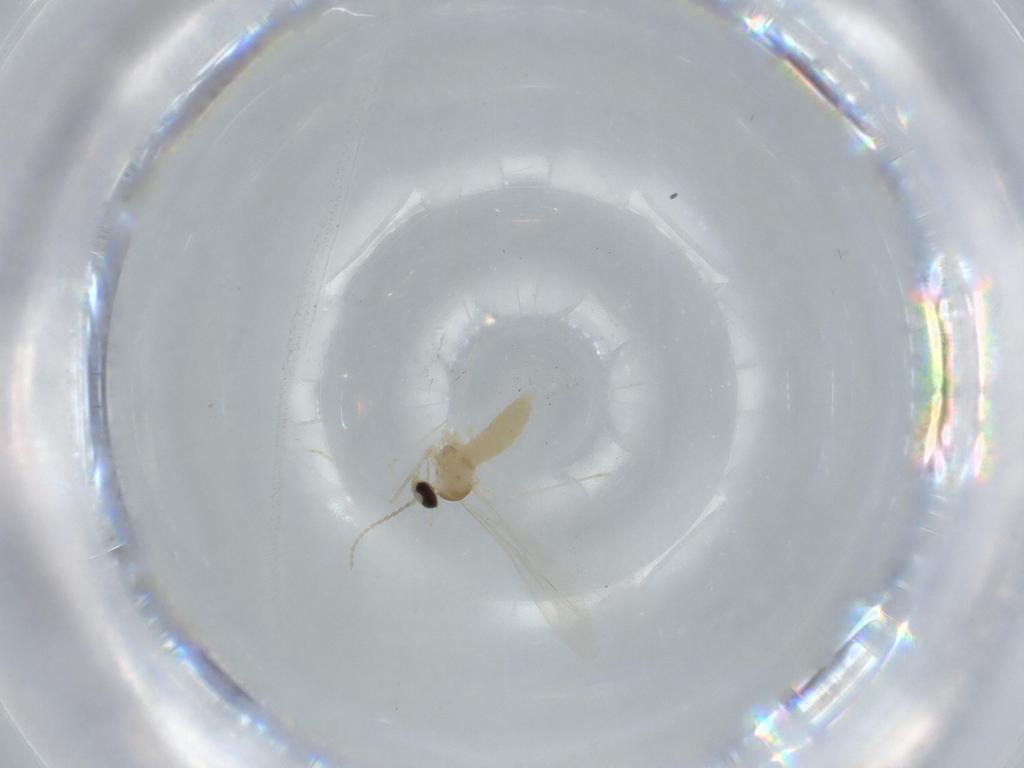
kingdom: Animalia
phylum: Arthropoda
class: Insecta
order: Diptera
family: Cecidomyiidae
